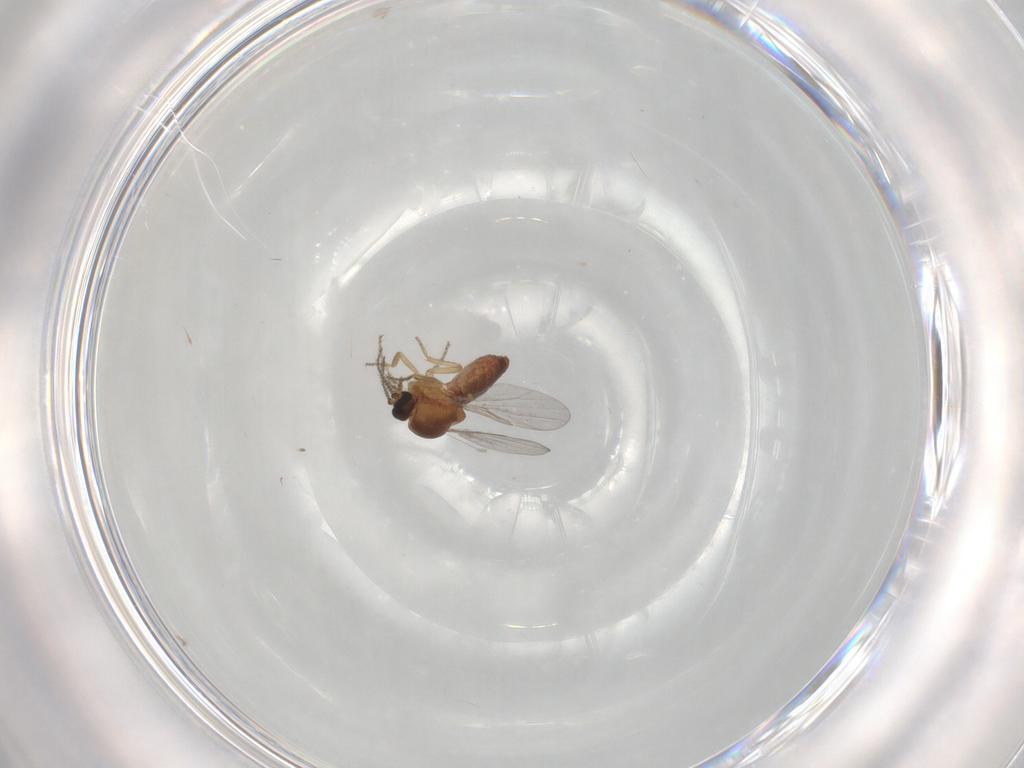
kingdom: Animalia
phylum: Arthropoda
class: Insecta
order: Diptera
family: Ceratopogonidae
